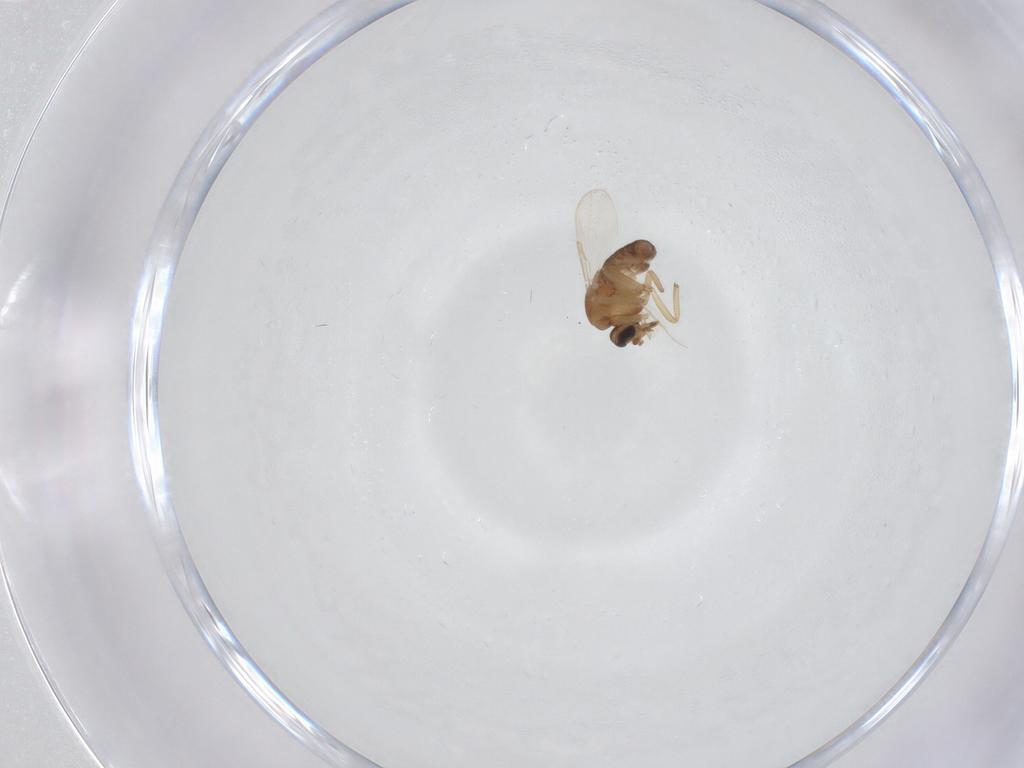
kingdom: Animalia
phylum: Arthropoda
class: Insecta
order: Diptera
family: Ceratopogonidae
